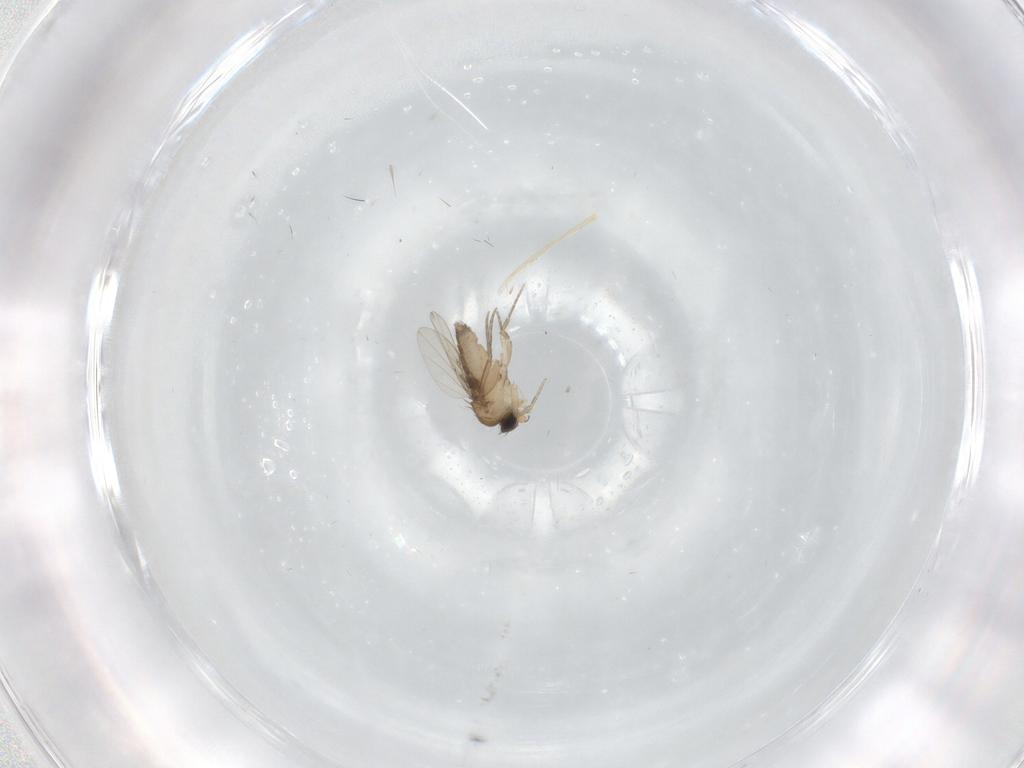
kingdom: Animalia
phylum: Arthropoda
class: Insecta
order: Diptera
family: Phoridae
